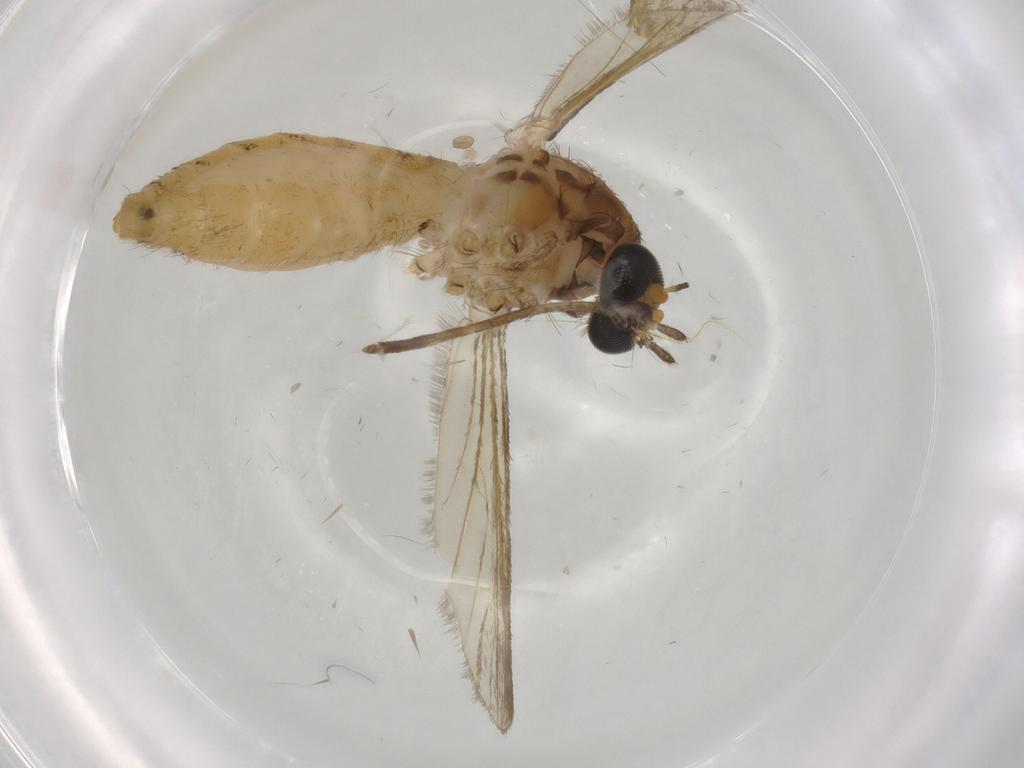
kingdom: Animalia
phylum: Arthropoda
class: Insecta
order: Diptera
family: Culicidae
